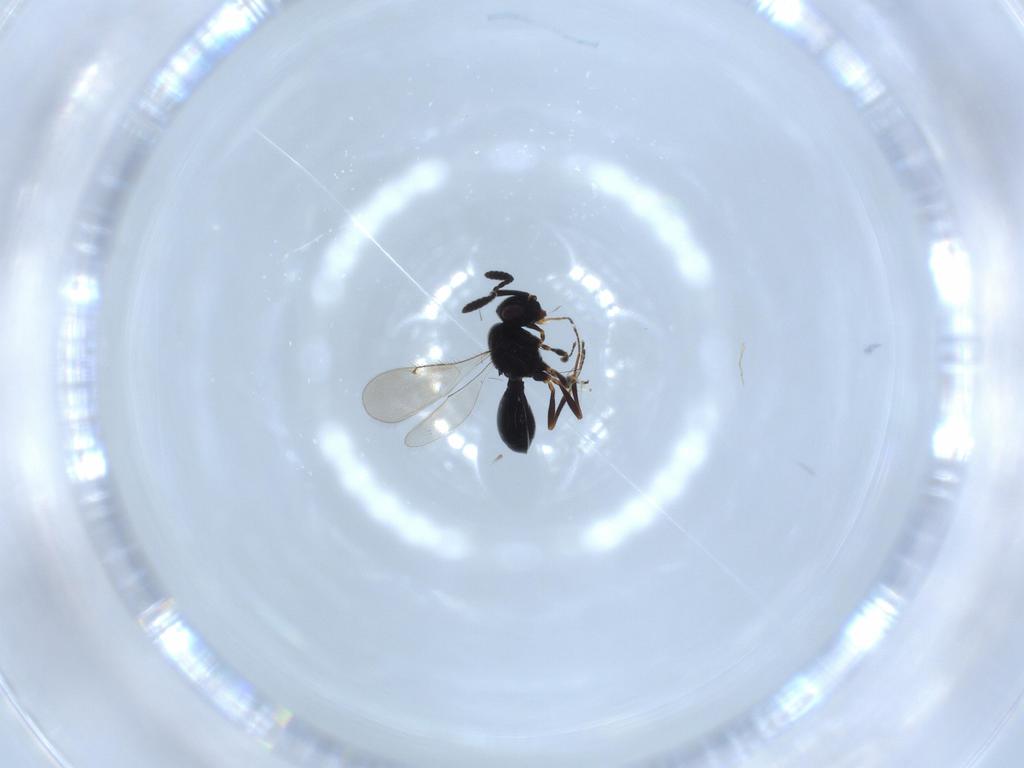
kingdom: Animalia
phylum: Arthropoda
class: Insecta
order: Hymenoptera
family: Scelionidae
